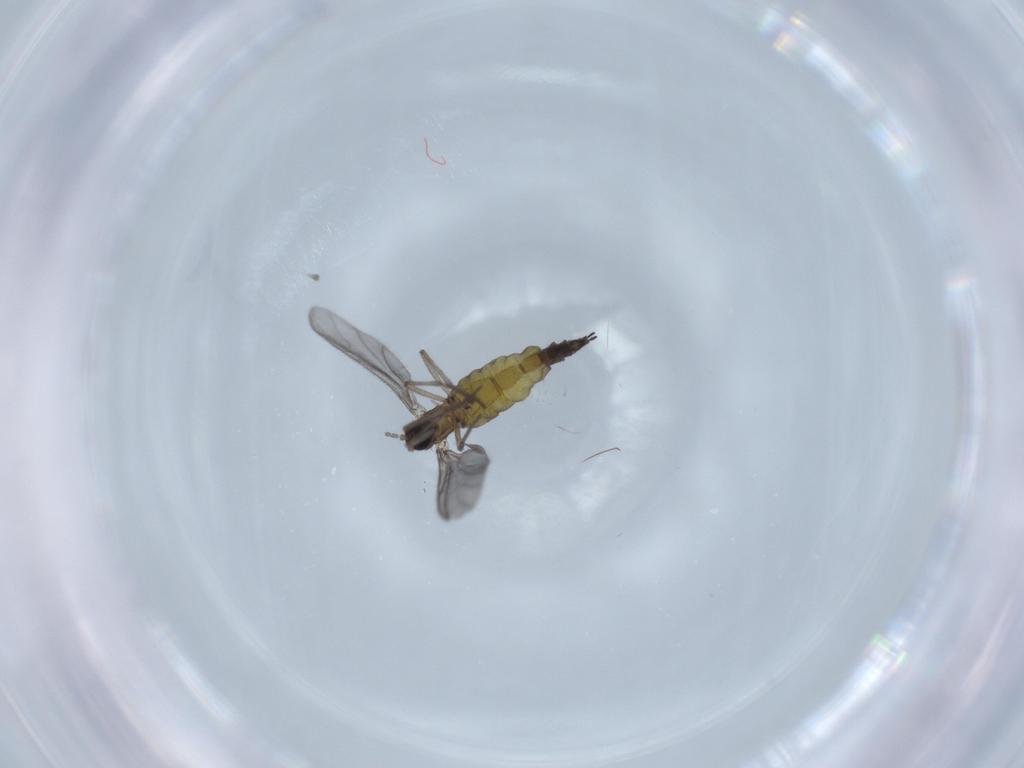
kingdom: Animalia
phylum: Arthropoda
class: Insecta
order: Diptera
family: Sciaridae
